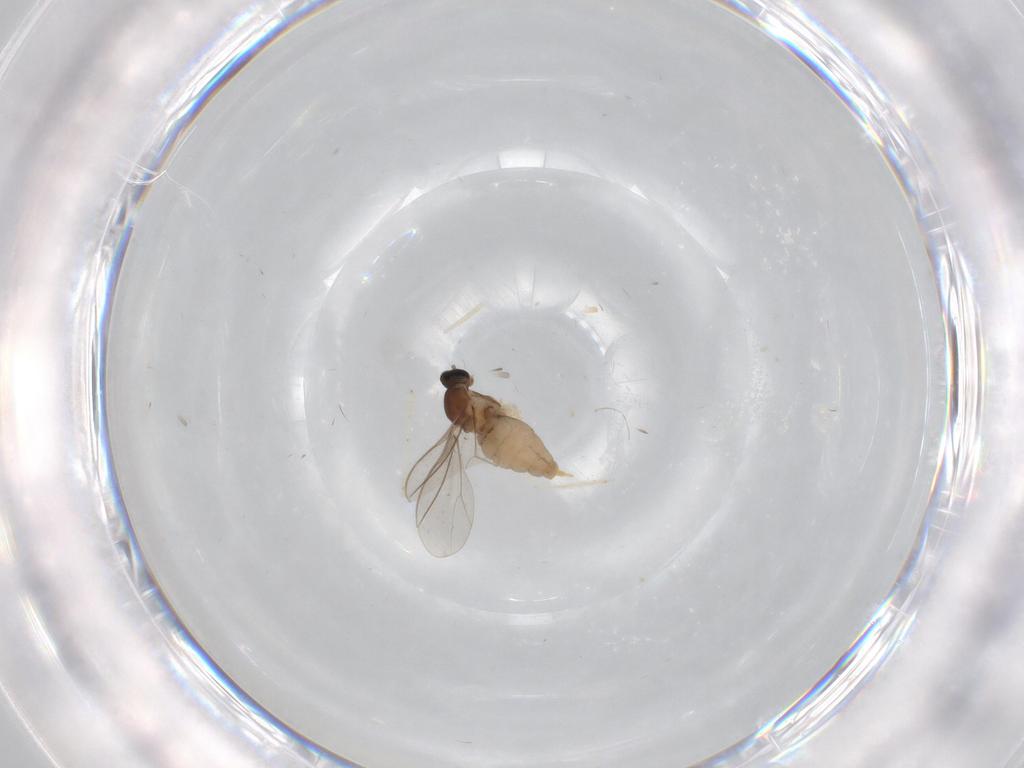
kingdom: Animalia
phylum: Arthropoda
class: Insecta
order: Diptera
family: Cecidomyiidae
